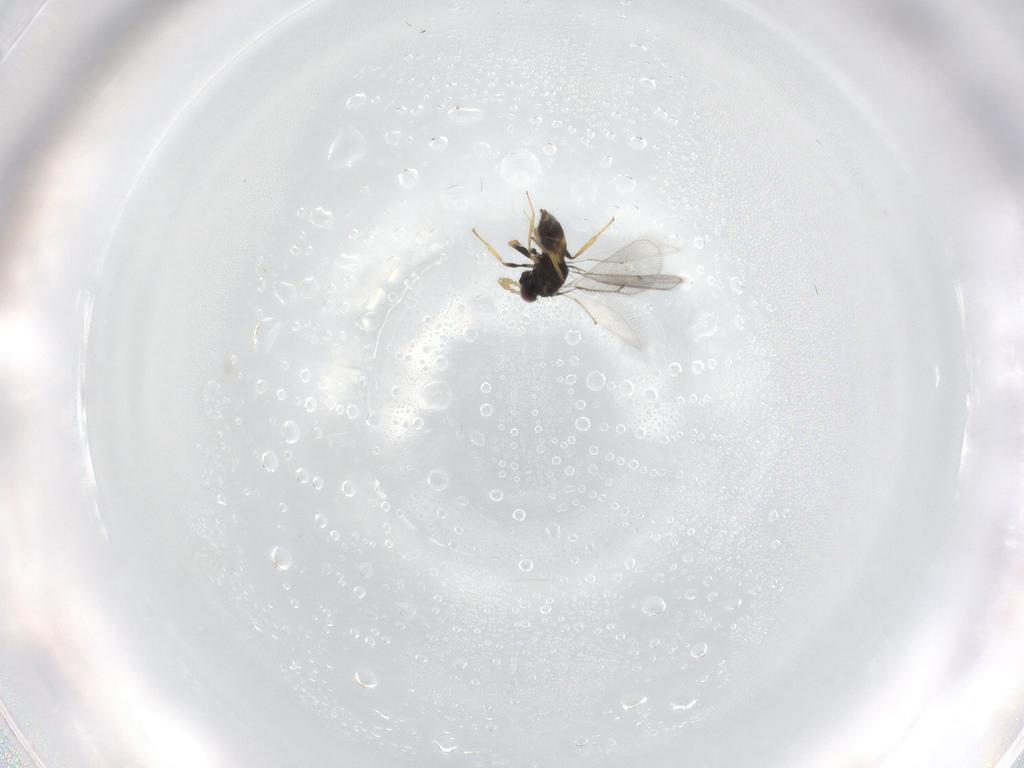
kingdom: Animalia
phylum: Arthropoda
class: Insecta
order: Hymenoptera
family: Eulophidae
